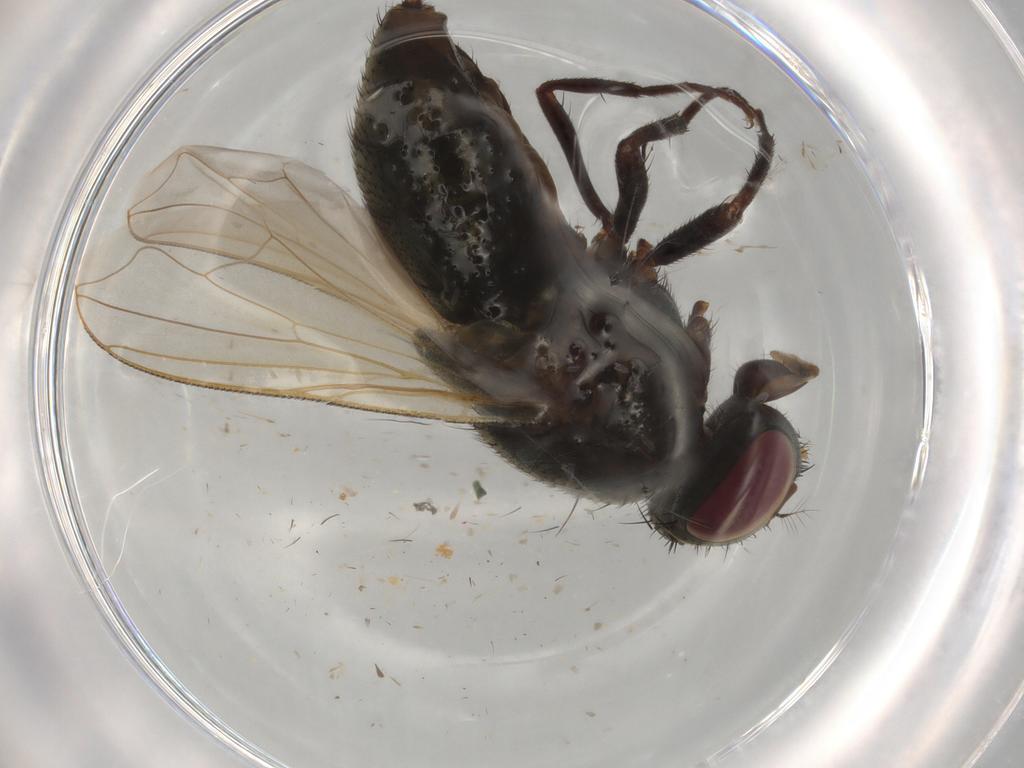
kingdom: Animalia
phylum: Arthropoda
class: Insecta
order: Diptera
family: Muscidae
